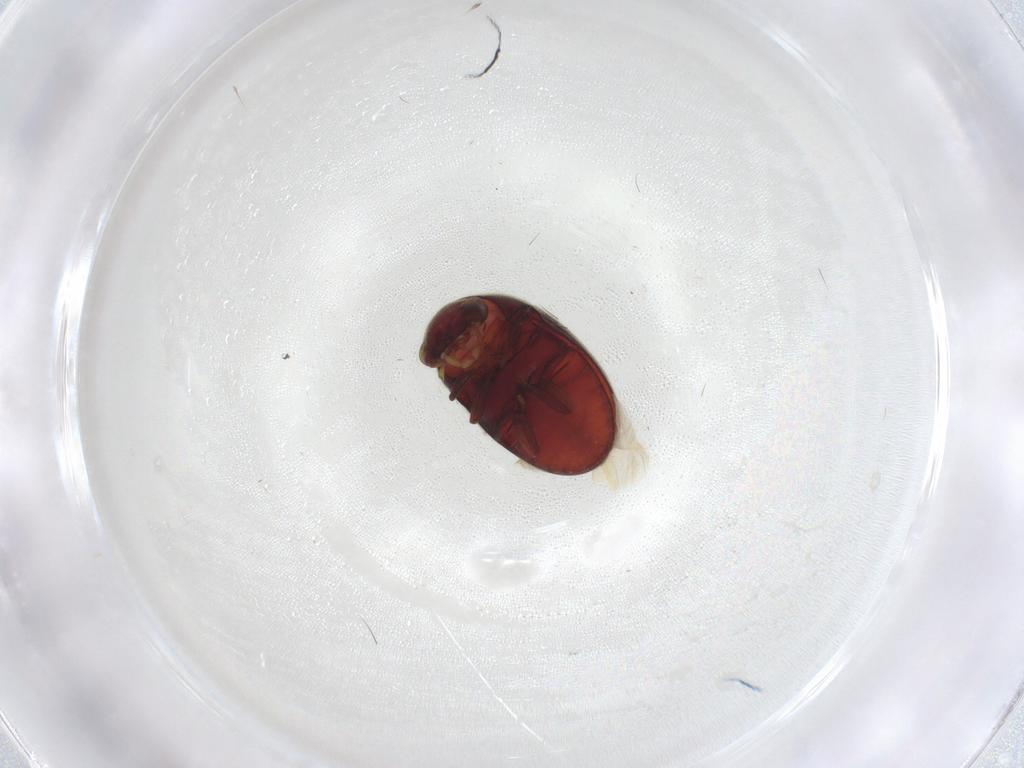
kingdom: Animalia
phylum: Arthropoda
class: Insecta
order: Coleoptera
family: Ptinidae
